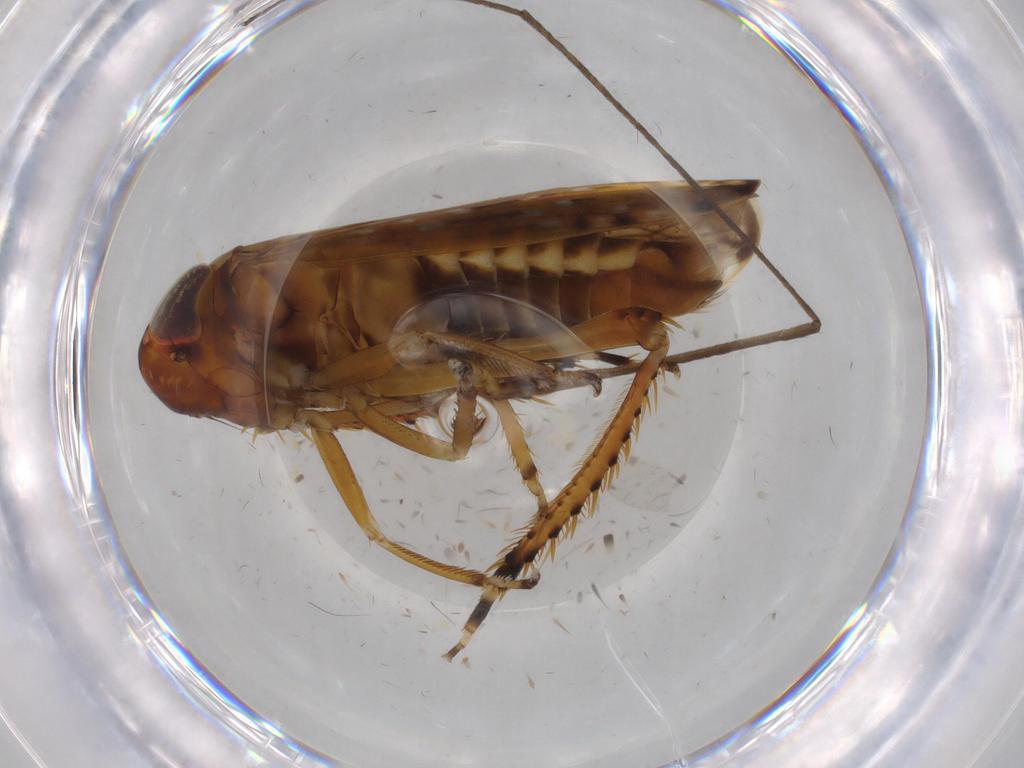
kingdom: Animalia
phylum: Arthropoda
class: Insecta
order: Hemiptera
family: Cicadellidae
